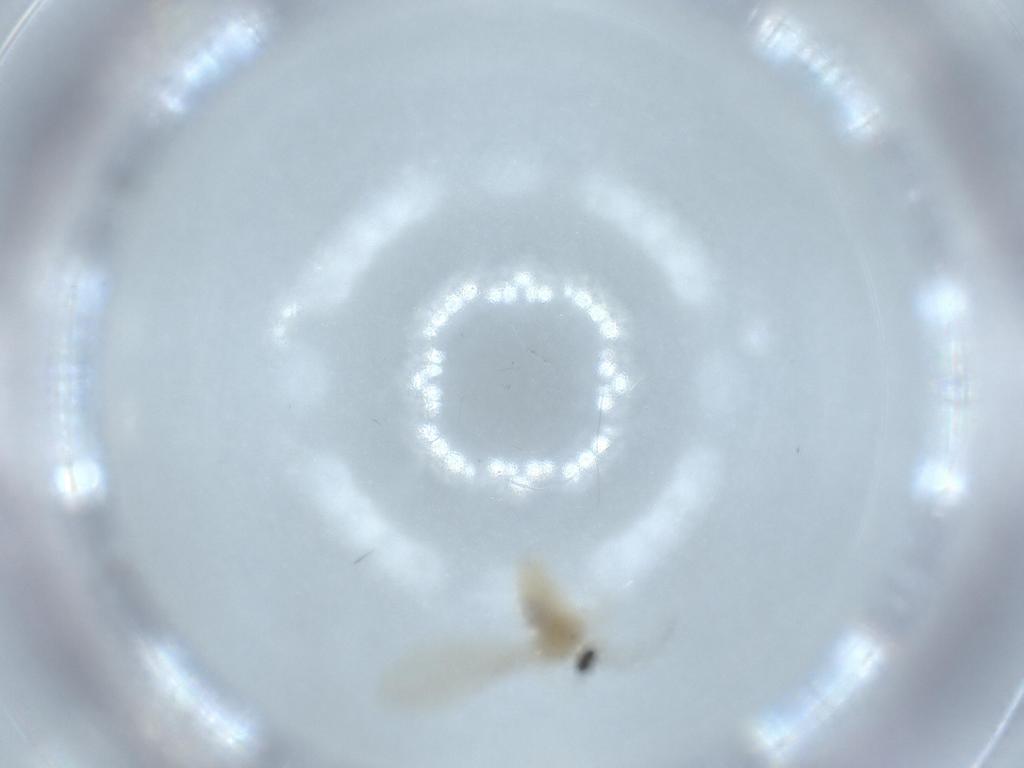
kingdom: Animalia
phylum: Arthropoda
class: Insecta
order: Diptera
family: Cecidomyiidae
